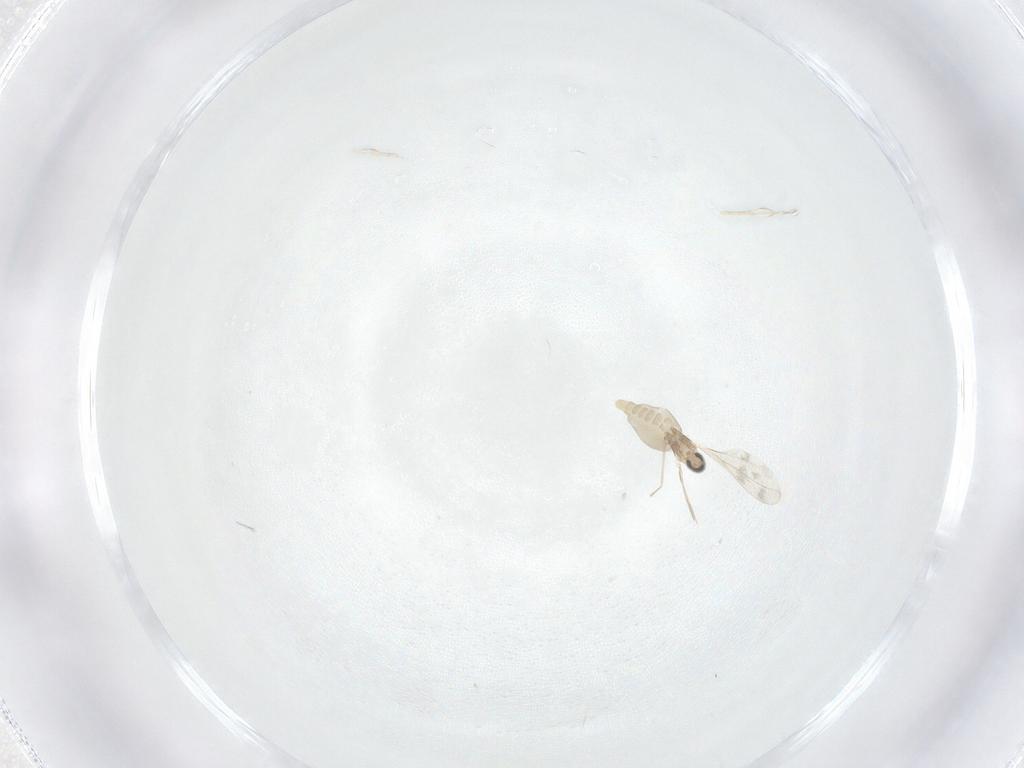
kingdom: Animalia
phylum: Arthropoda
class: Insecta
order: Diptera
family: Cecidomyiidae
